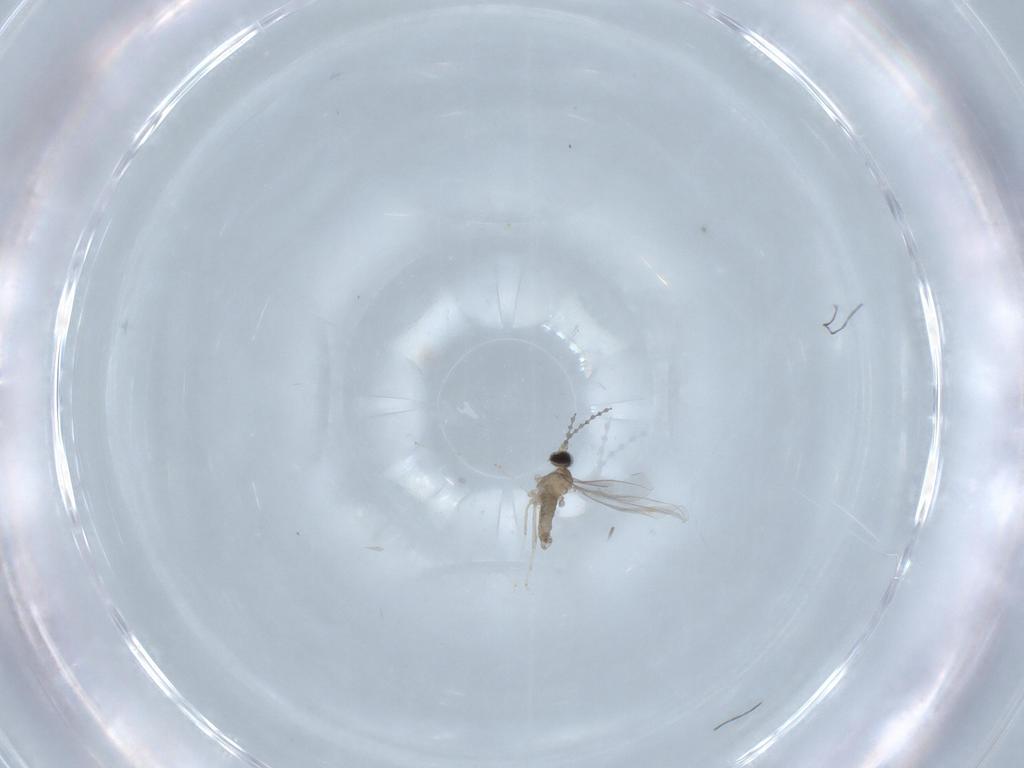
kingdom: Animalia
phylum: Arthropoda
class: Insecta
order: Diptera
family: Cecidomyiidae
